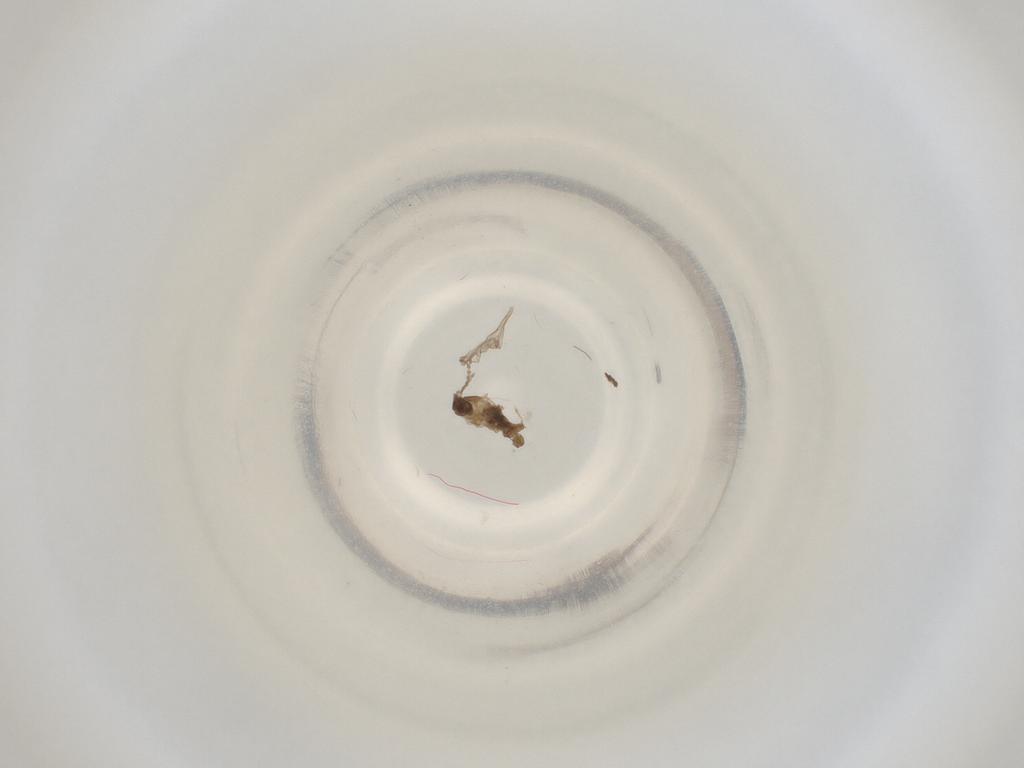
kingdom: Animalia
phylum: Arthropoda
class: Insecta
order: Diptera
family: Cecidomyiidae
